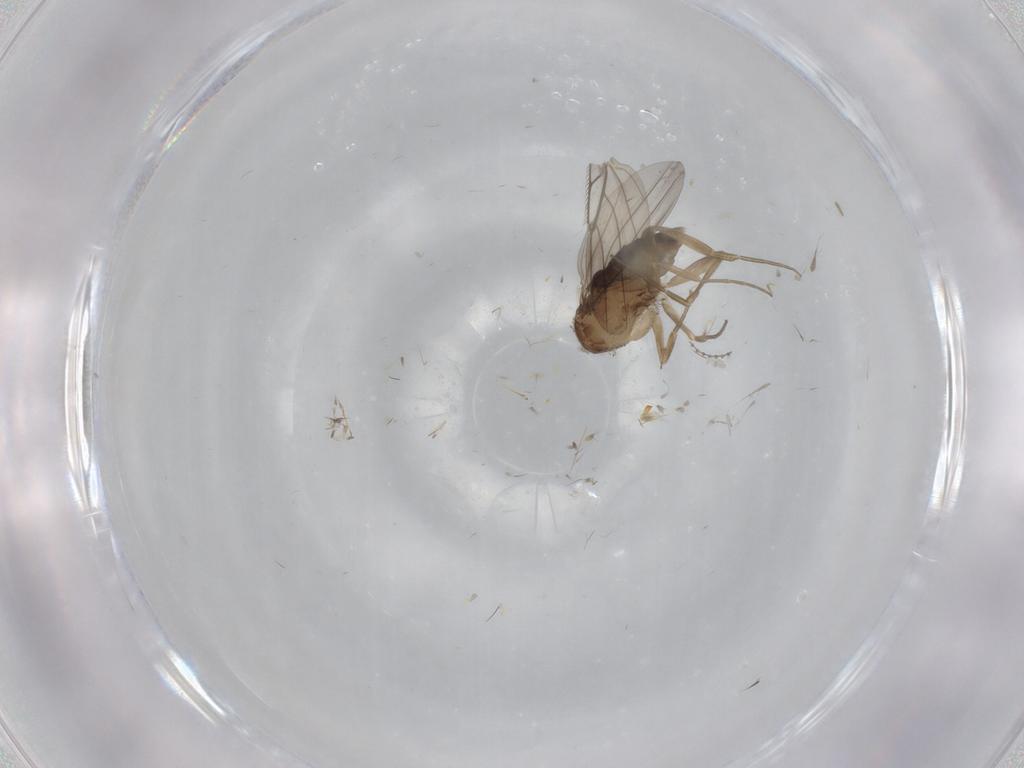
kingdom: Animalia
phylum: Arthropoda
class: Insecta
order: Diptera
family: Phoridae
